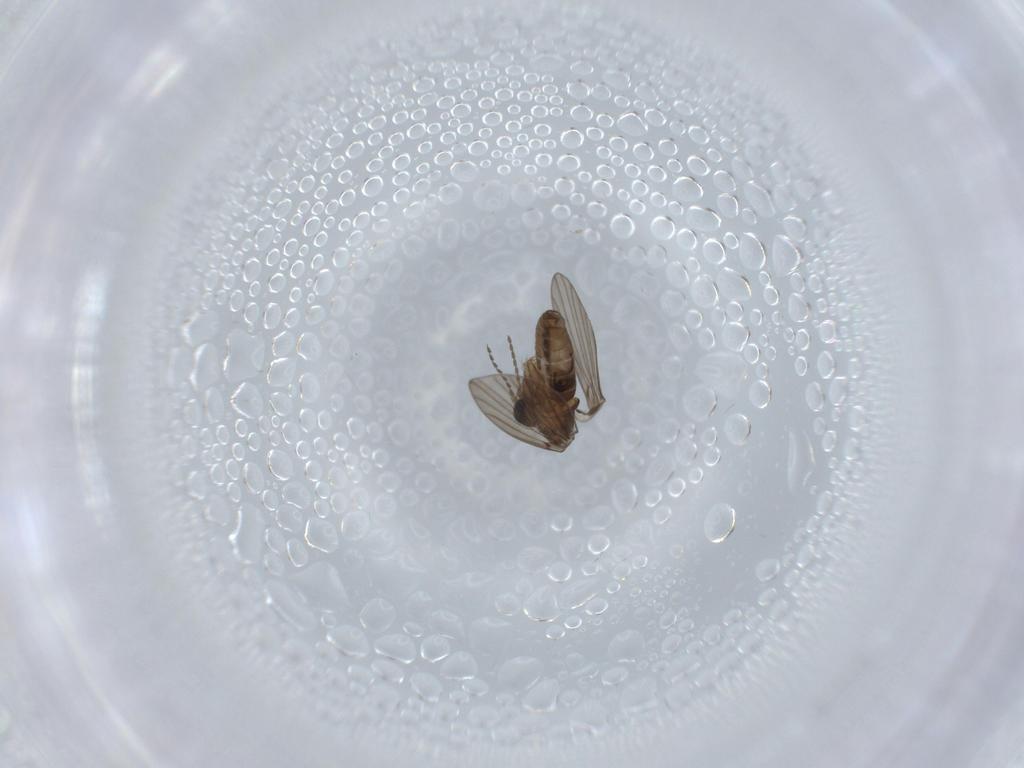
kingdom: Animalia
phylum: Arthropoda
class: Insecta
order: Diptera
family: Psychodidae
